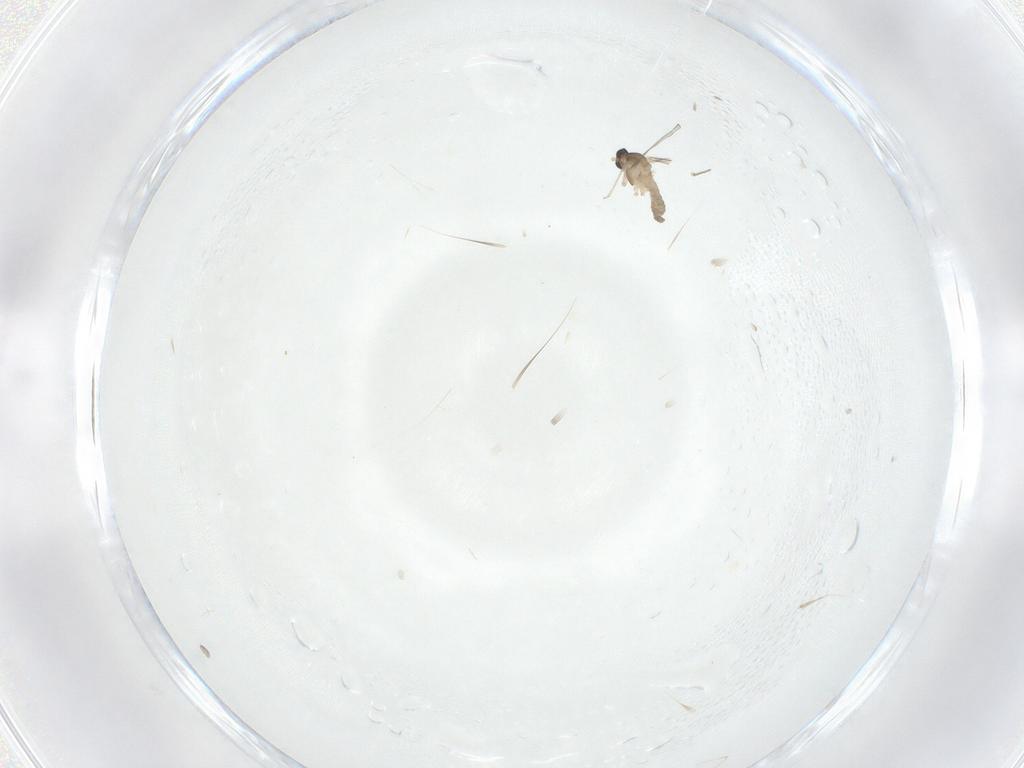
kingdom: Animalia
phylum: Arthropoda
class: Insecta
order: Diptera
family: Cecidomyiidae
